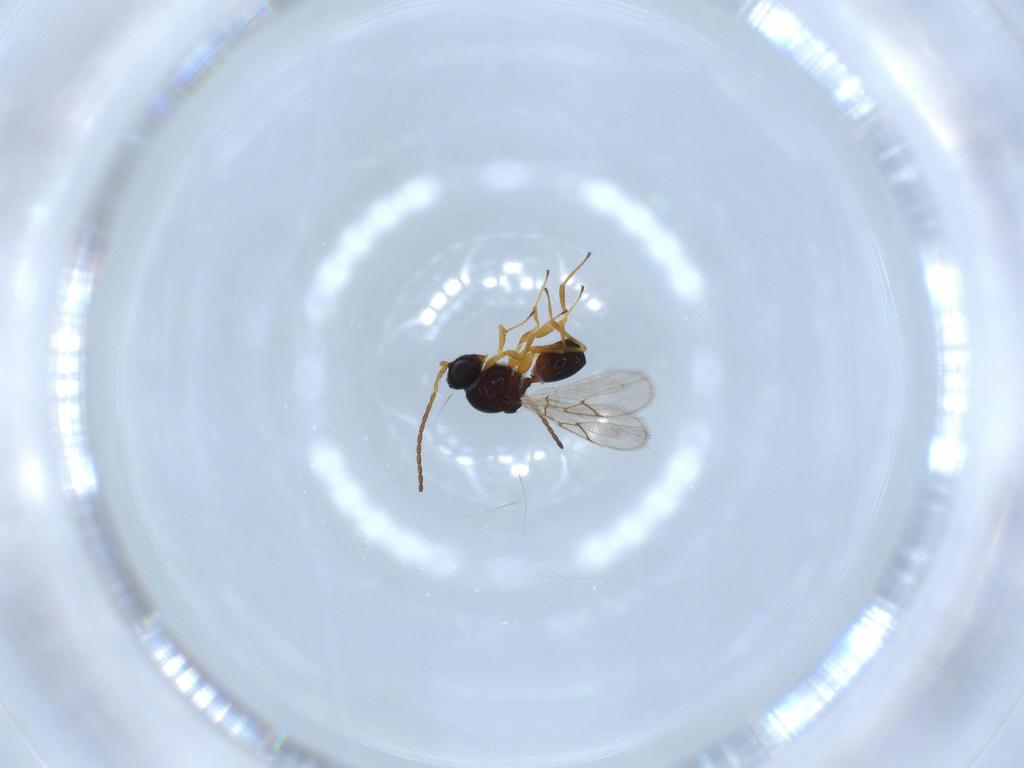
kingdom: Animalia
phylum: Arthropoda
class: Insecta
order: Hymenoptera
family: Figitidae
